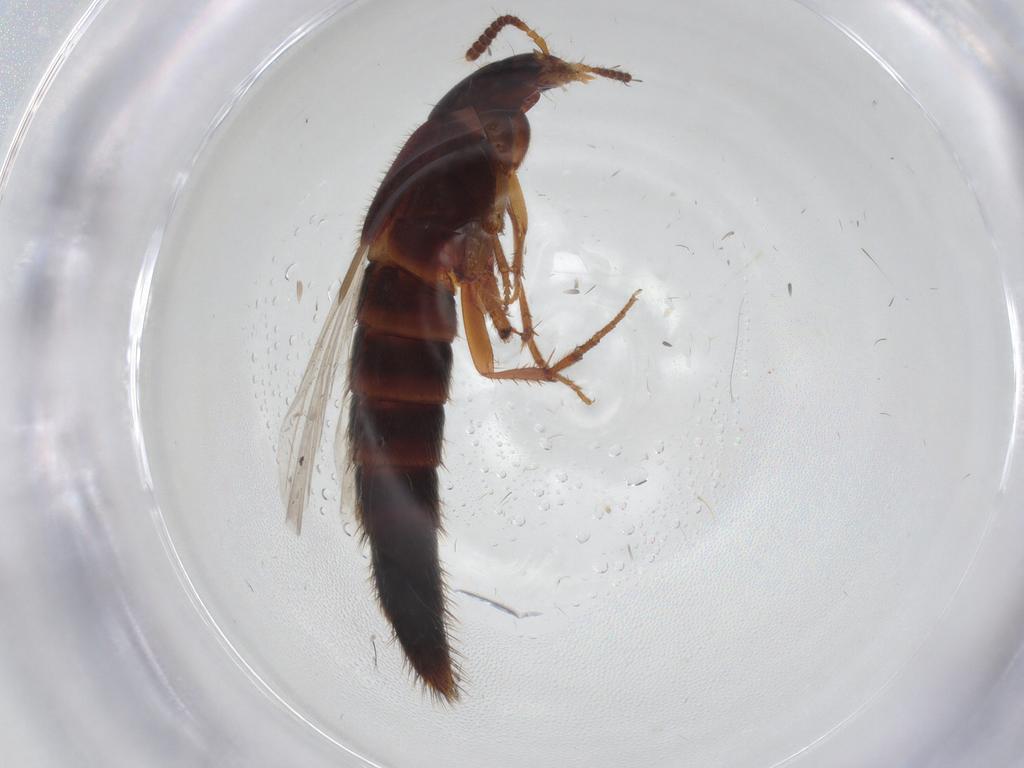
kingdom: Animalia
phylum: Arthropoda
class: Insecta
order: Coleoptera
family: Staphylinidae
